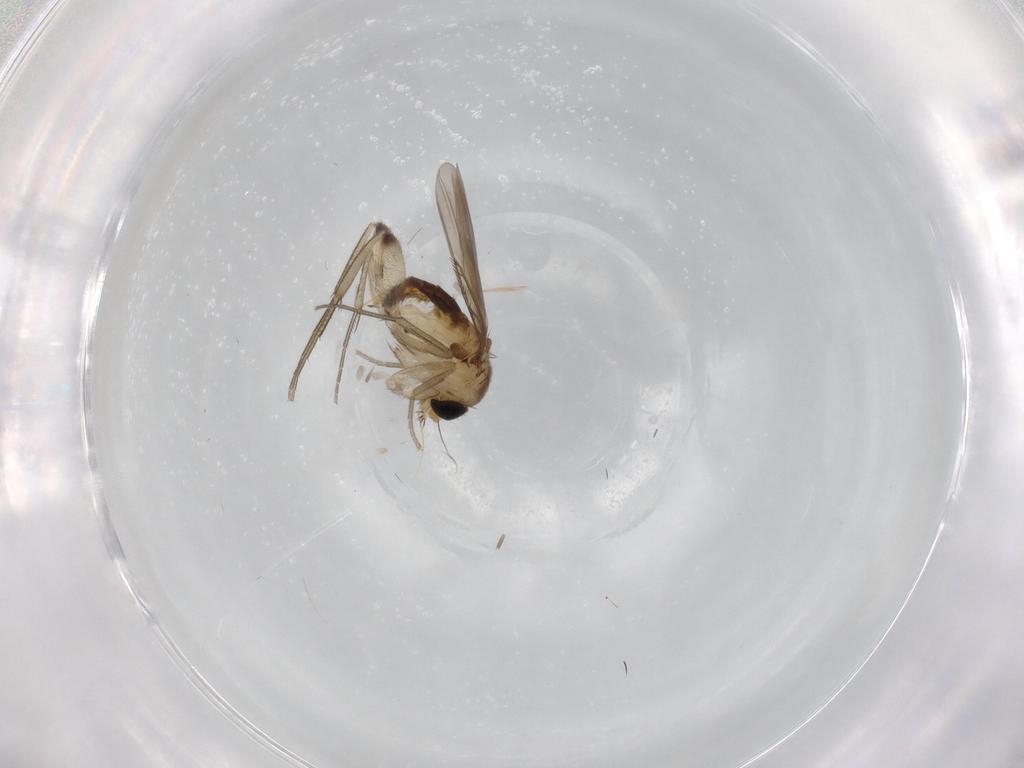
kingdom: Animalia
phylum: Arthropoda
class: Insecta
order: Diptera
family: Phoridae
